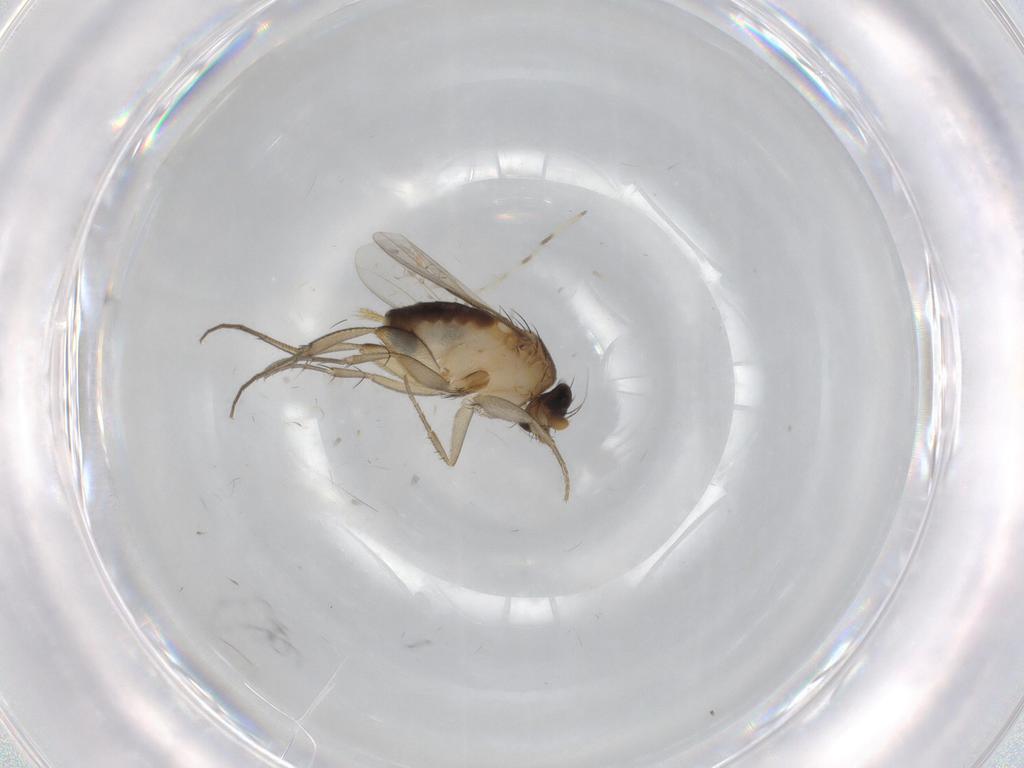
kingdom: Animalia
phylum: Arthropoda
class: Insecta
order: Diptera
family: Phoridae
